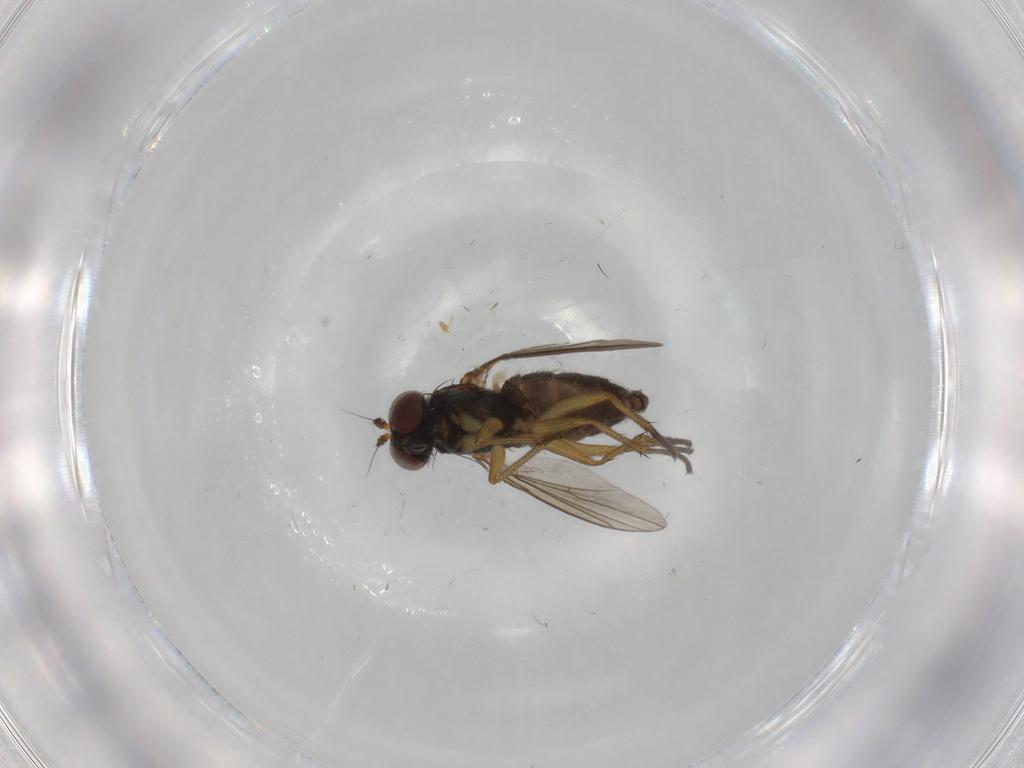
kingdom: Animalia
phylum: Arthropoda
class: Insecta
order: Diptera
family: Dolichopodidae
